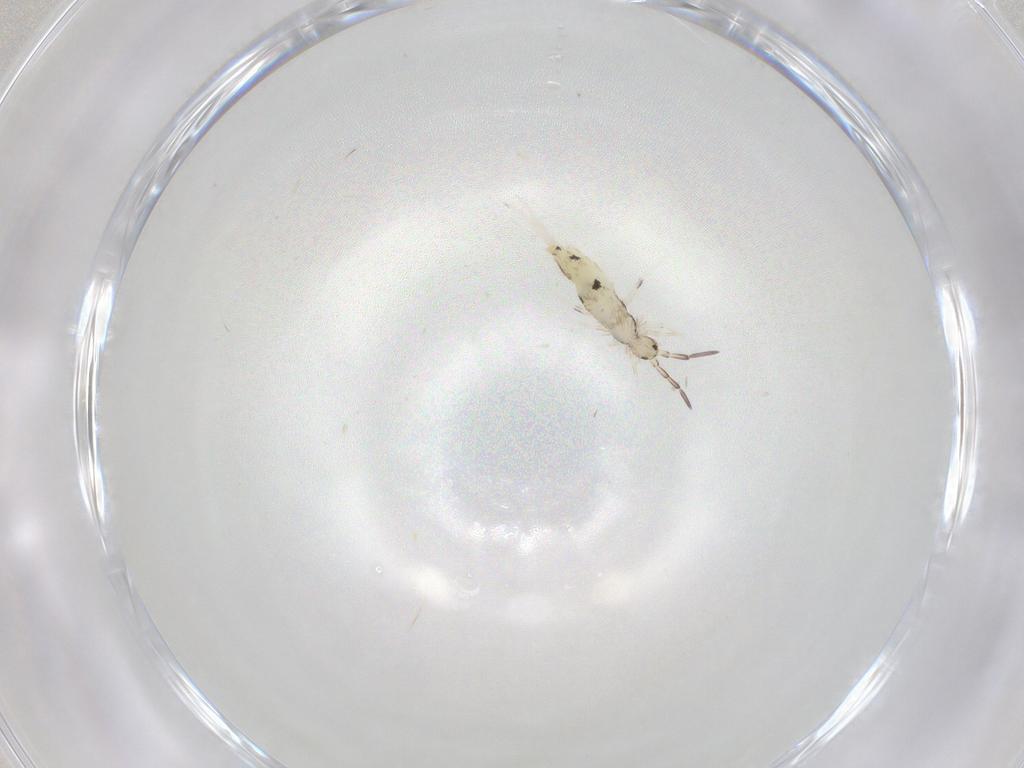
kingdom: Animalia
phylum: Arthropoda
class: Collembola
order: Entomobryomorpha
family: Entomobryidae
